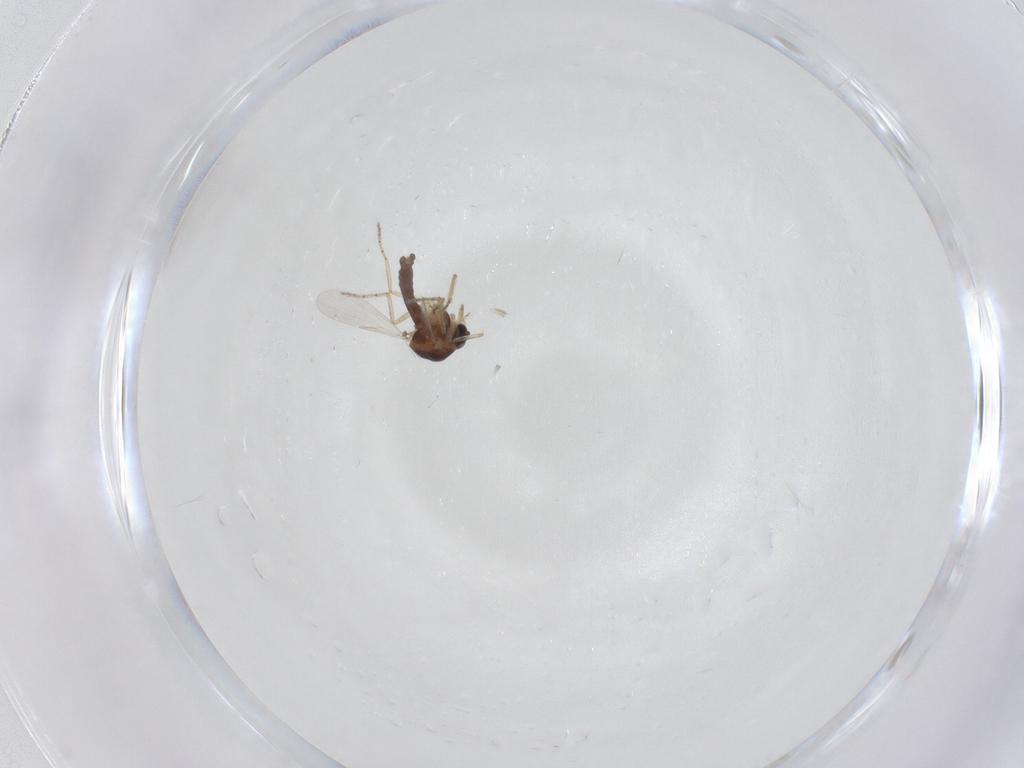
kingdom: Animalia
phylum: Arthropoda
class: Insecta
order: Diptera
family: Ceratopogonidae
